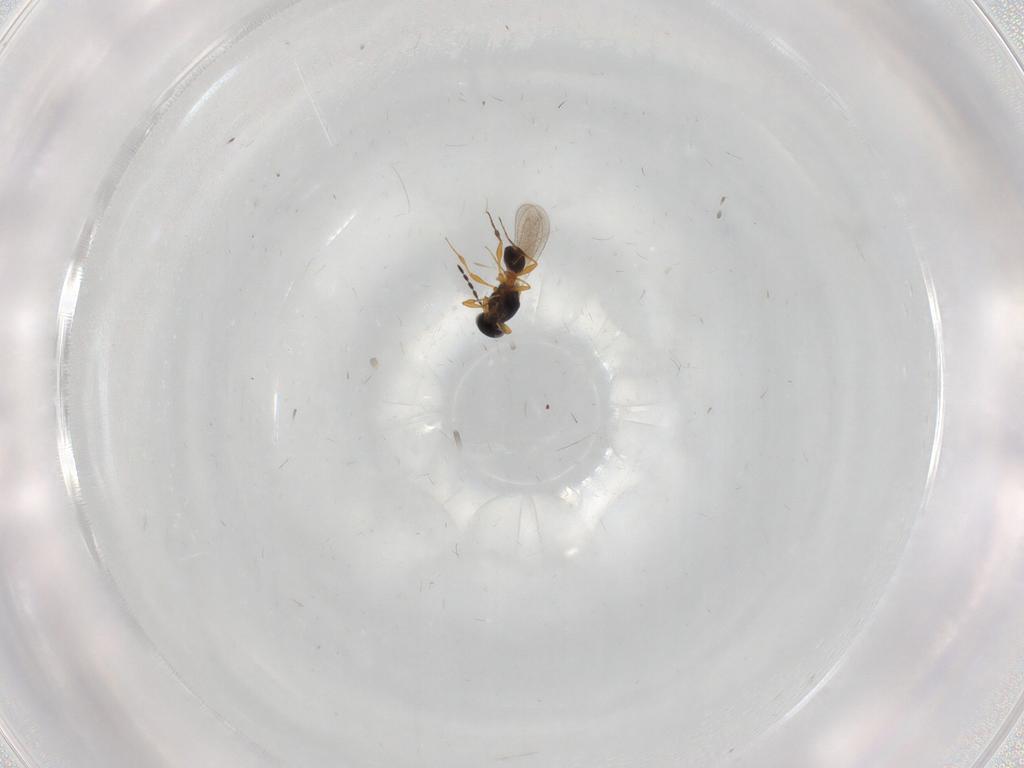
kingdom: Animalia
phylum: Arthropoda
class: Insecta
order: Hymenoptera
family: Platygastridae
